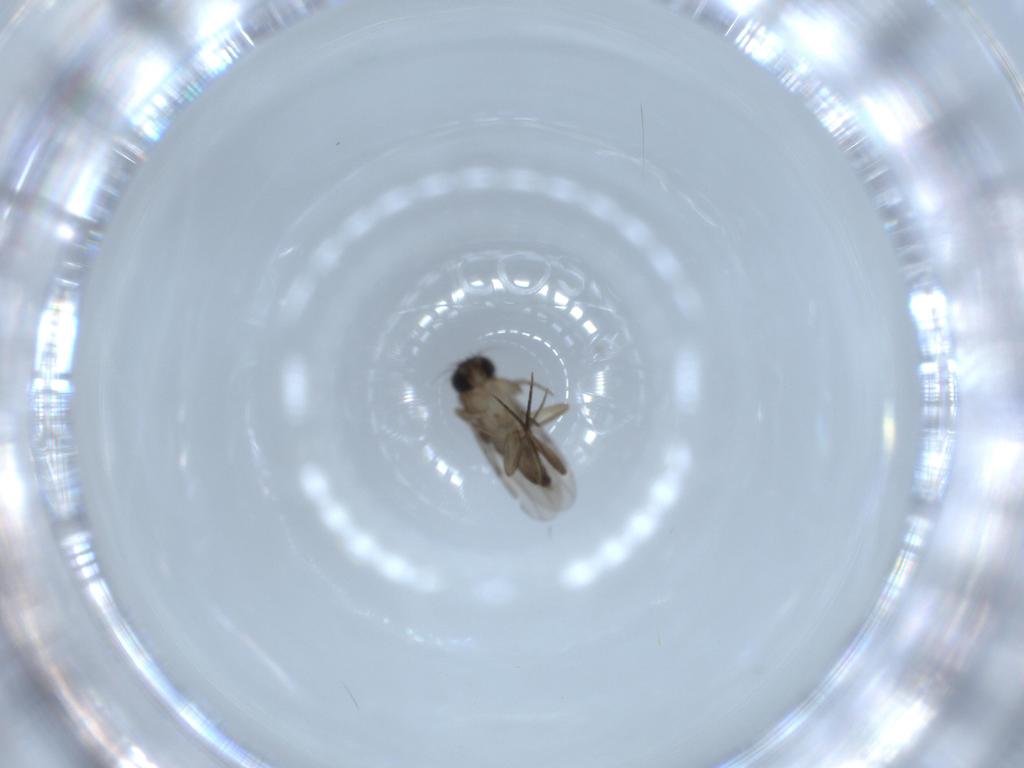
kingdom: Animalia
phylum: Arthropoda
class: Insecta
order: Diptera
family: Phoridae
